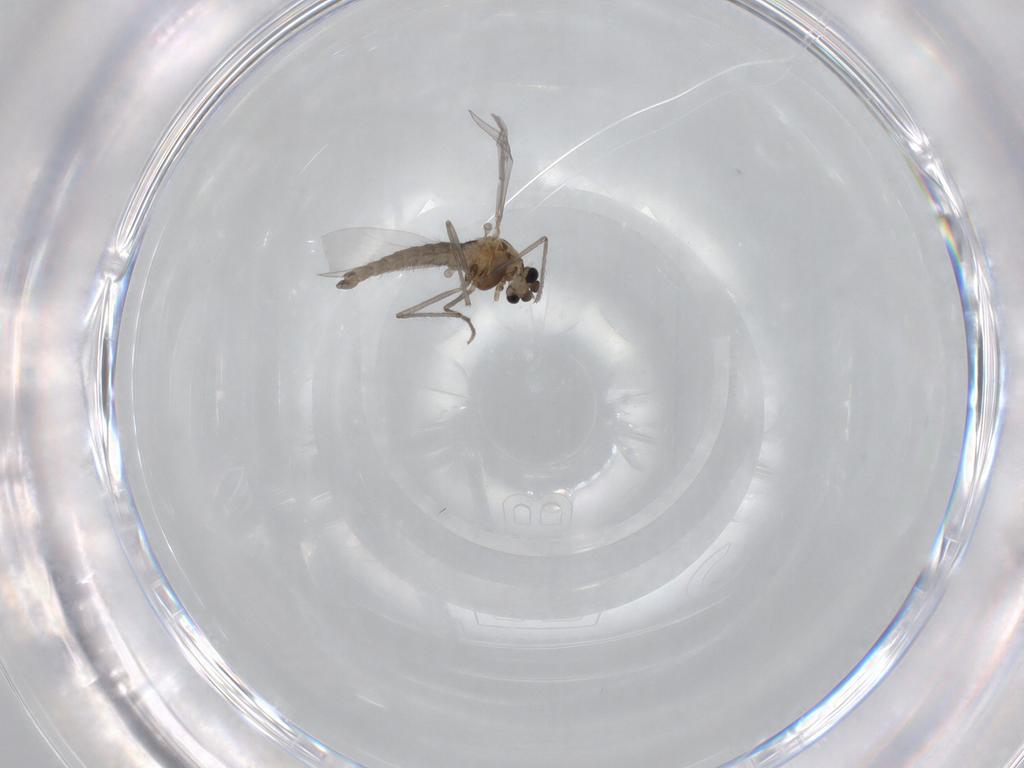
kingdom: Animalia
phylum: Arthropoda
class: Insecta
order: Diptera
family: Chironomidae
